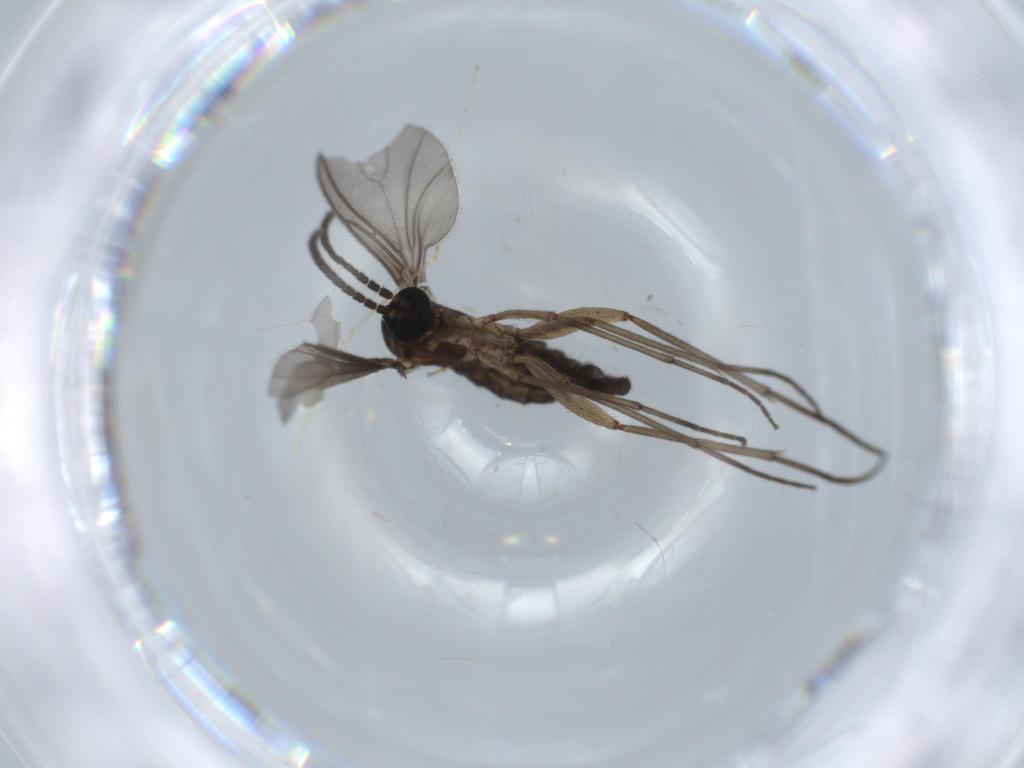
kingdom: Animalia
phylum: Arthropoda
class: Insecta
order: Diptera
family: Sciaridae
